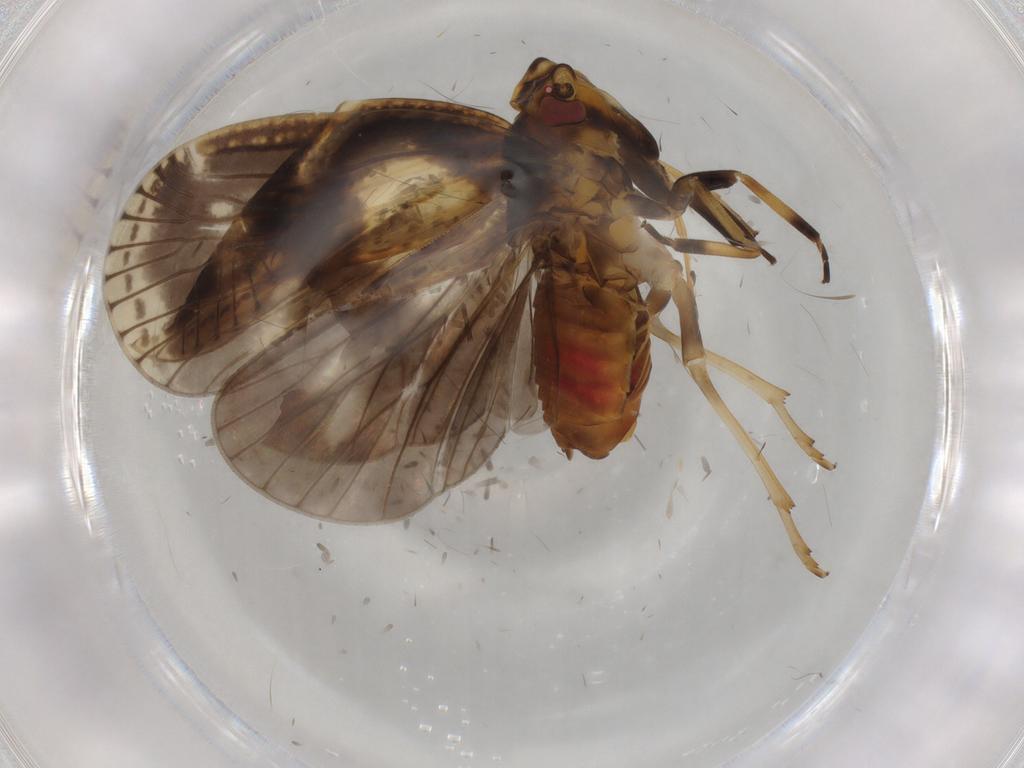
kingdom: Animalia
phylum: Arthropoda
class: Insecta
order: Hemiptera
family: Cixiidae
